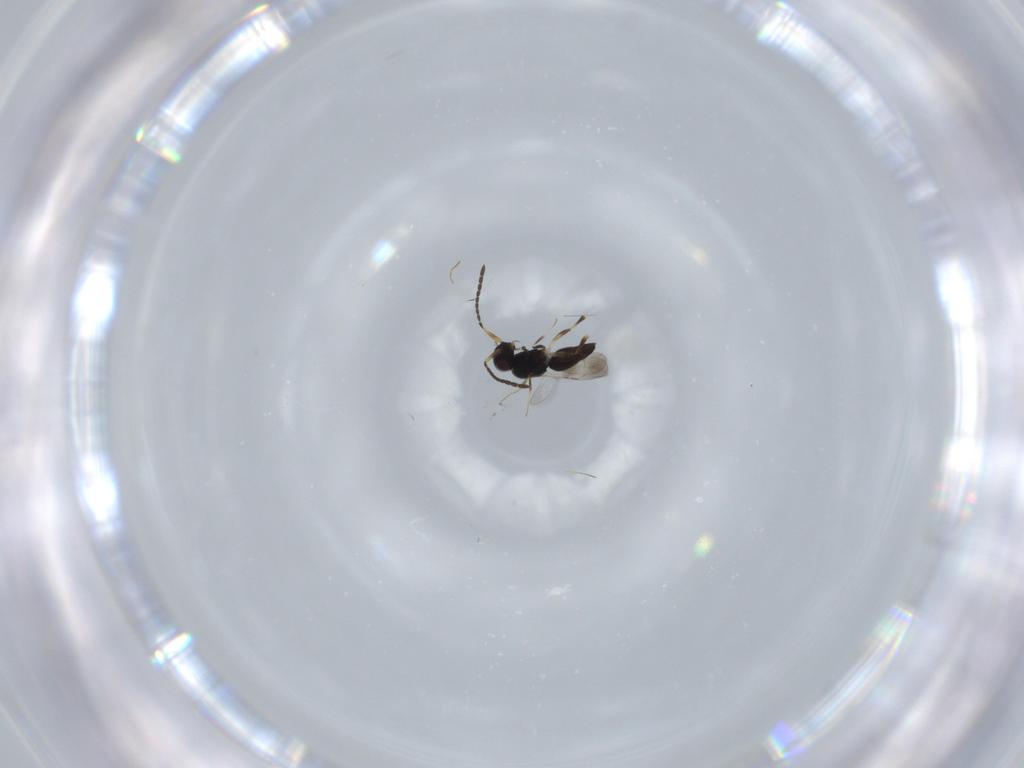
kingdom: Animalia
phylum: Arthropoda
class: Insecta
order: Hymenoptera
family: Ceraphronidae
